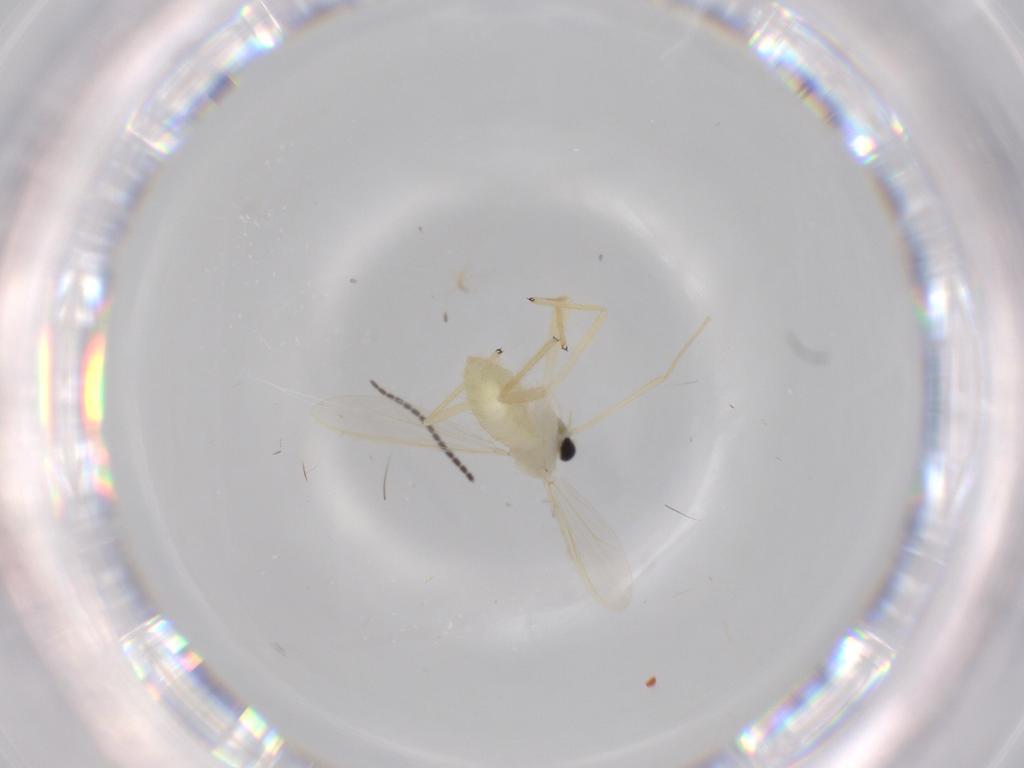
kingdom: Animalia
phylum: Arthropoda
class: Insecta
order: Diptera
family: Chironomidae
